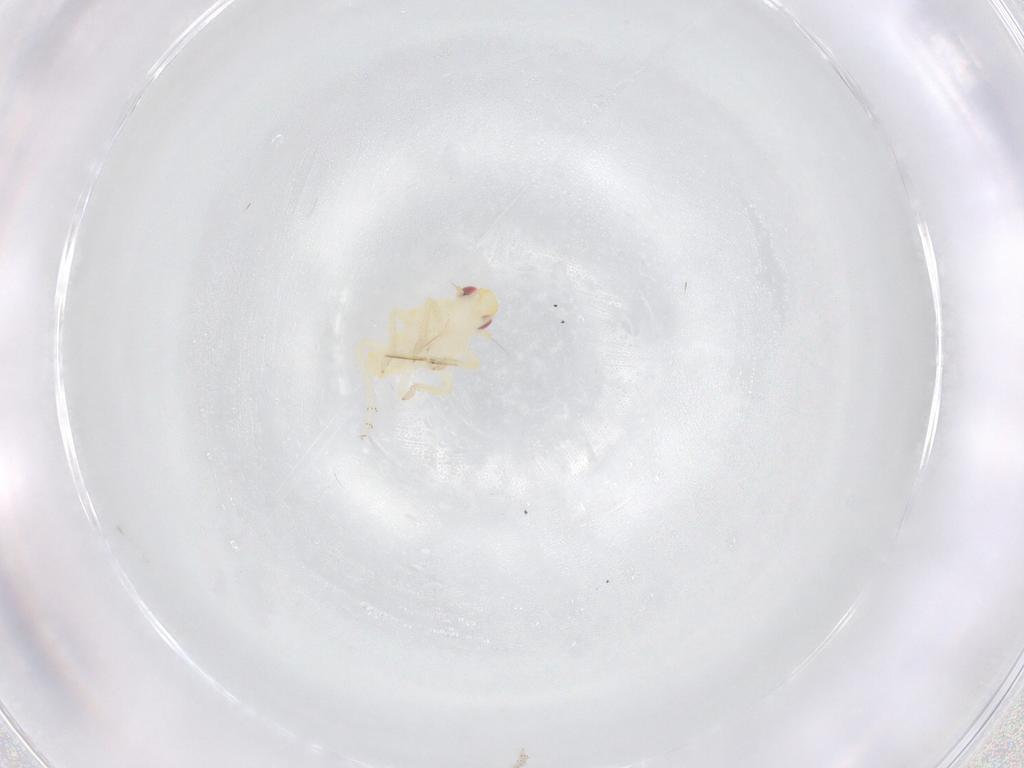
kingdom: Animalia
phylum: Arthropoda
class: Insecta
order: Hemiptera
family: Tropiduchidae
